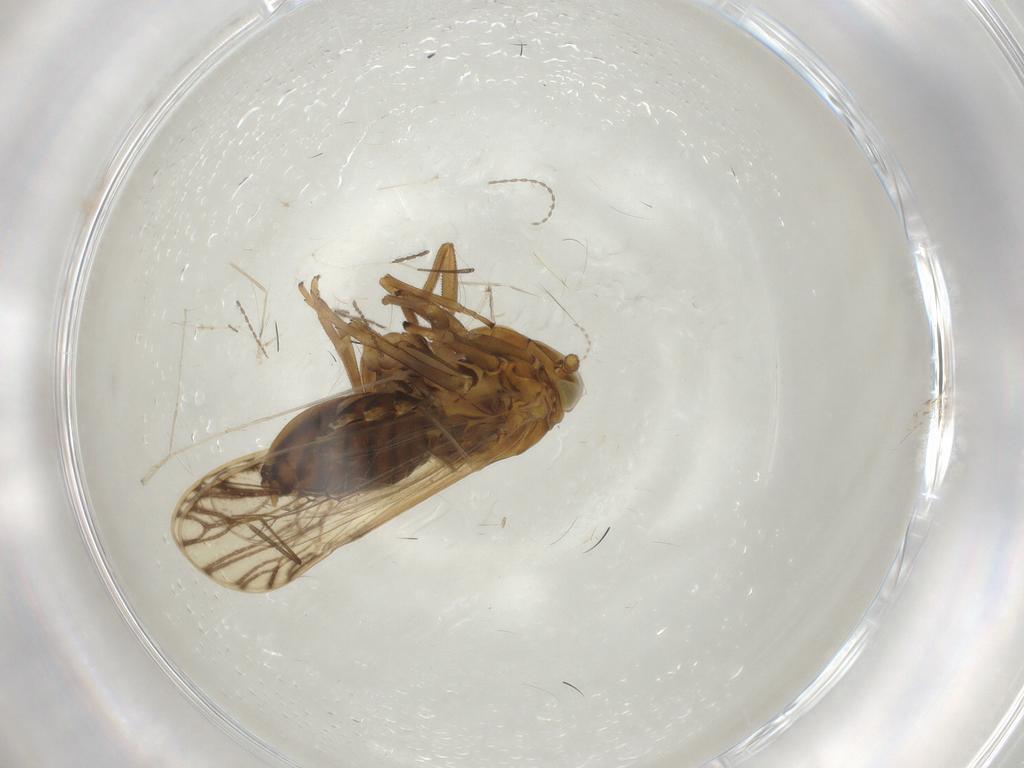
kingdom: Animalia
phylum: Arthropoda
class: Insecta
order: Hemiptera
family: Delphacidae
